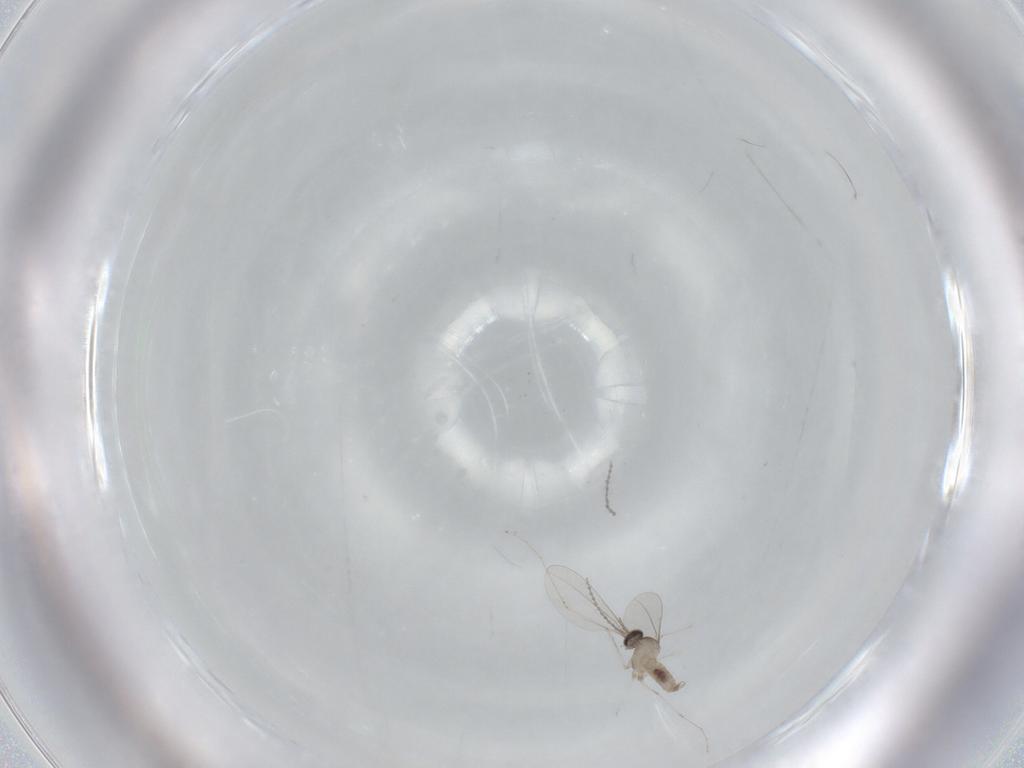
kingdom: Animalia
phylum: Arthropoda
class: Insecta
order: Diptera
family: Cecidomyiidae
